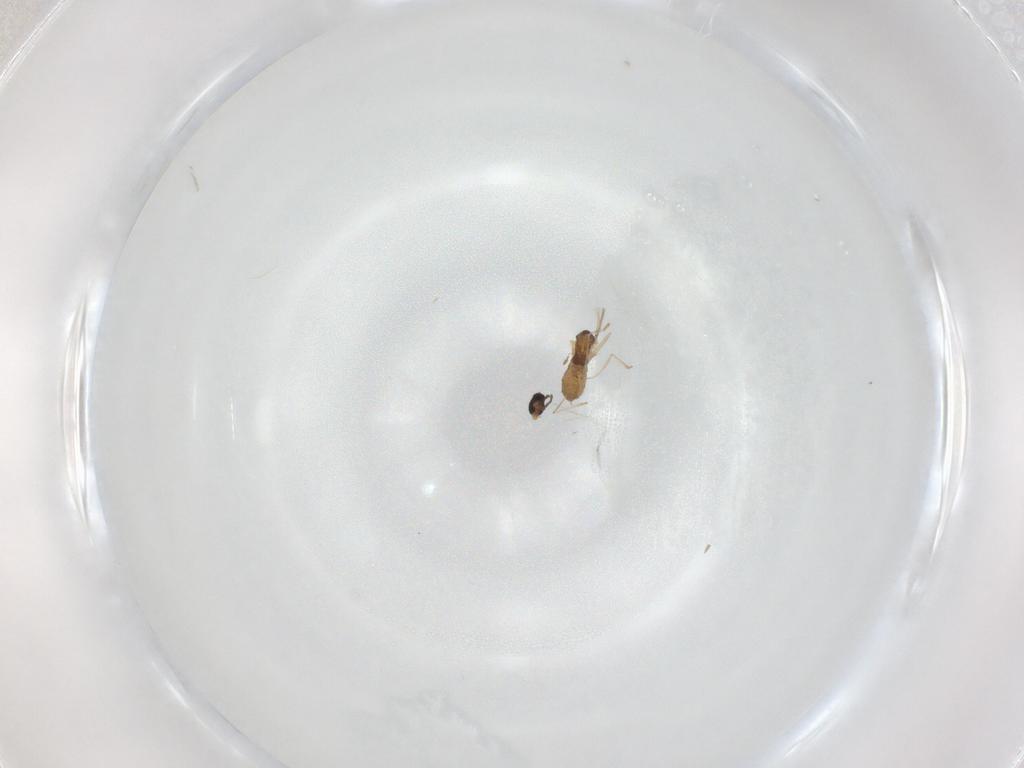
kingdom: Animalia
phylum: Arthropoda
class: Insecta
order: Diptera
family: Cecidomyiidae
